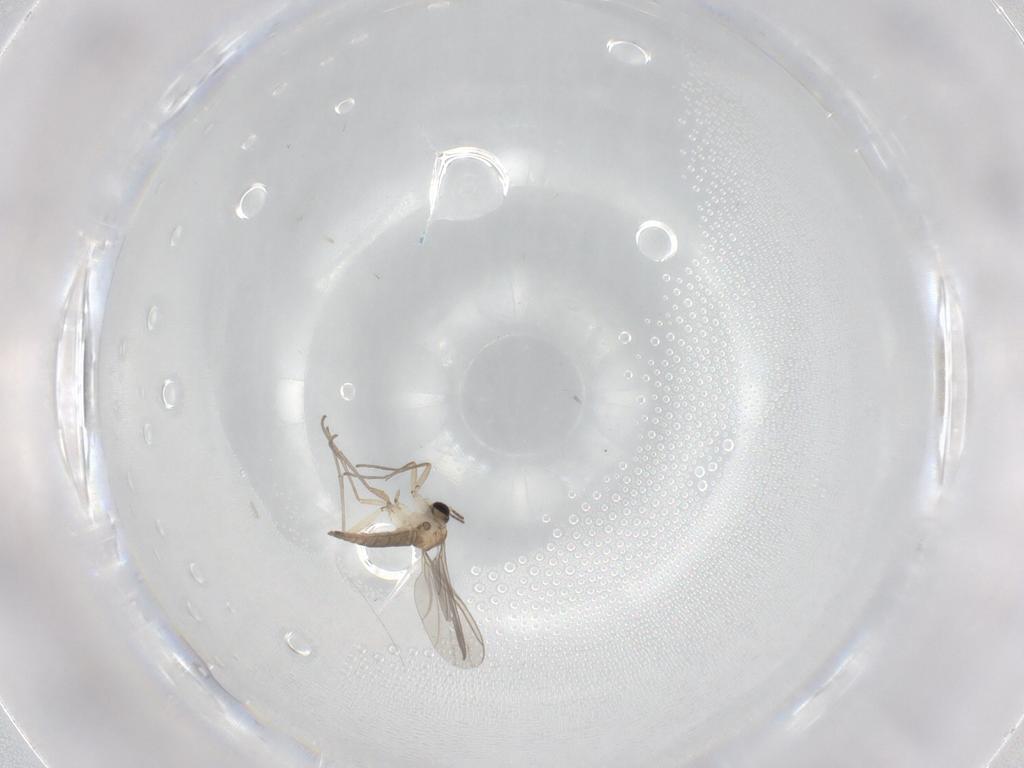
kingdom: Animalia
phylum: Arthropoda
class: Insecta
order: Diptera
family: Sciaridae
